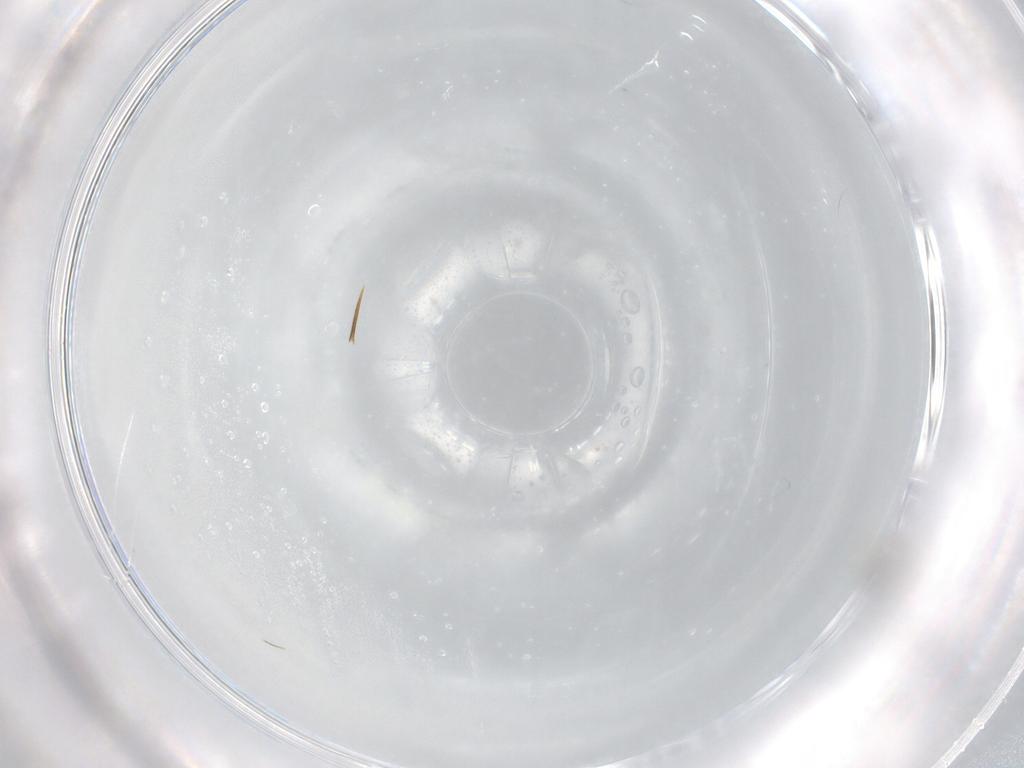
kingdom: Animalia
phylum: Arthropoda
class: Insecta
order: Hymenoptera
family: Mymaridae
